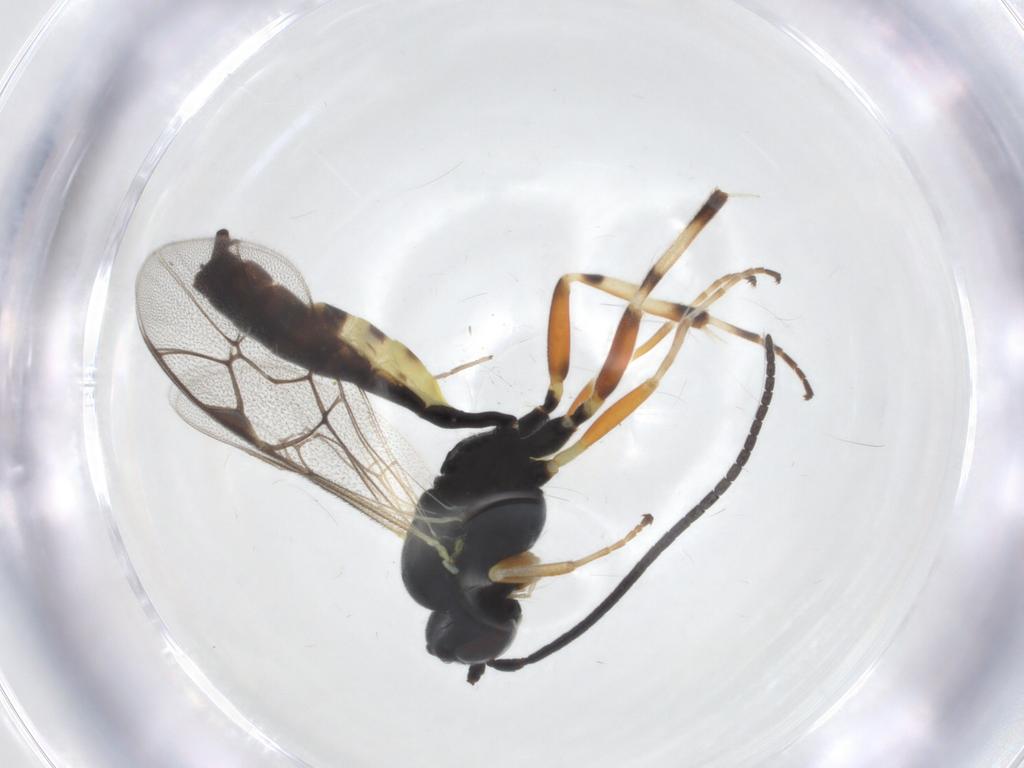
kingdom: Animalia
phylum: Arthropoda
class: Insecta
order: Hymenoptera
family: Ichneumonidae
